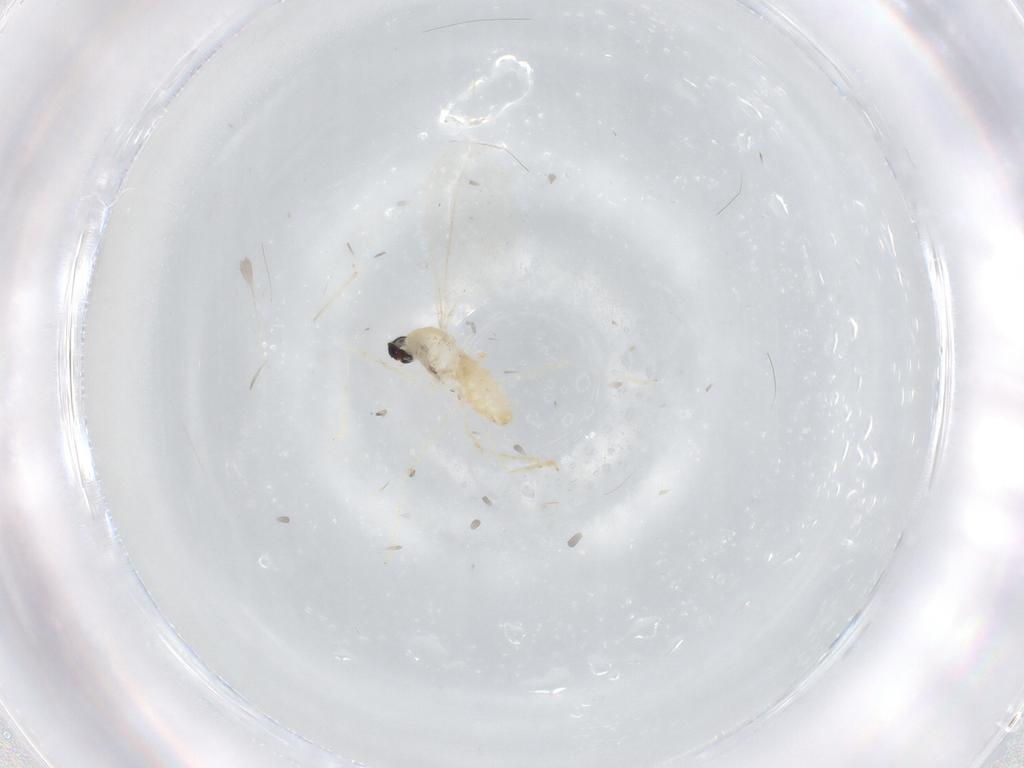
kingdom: Animalia
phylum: Arthropoda
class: Insecta
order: Diptera
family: Cecidomyiidae
